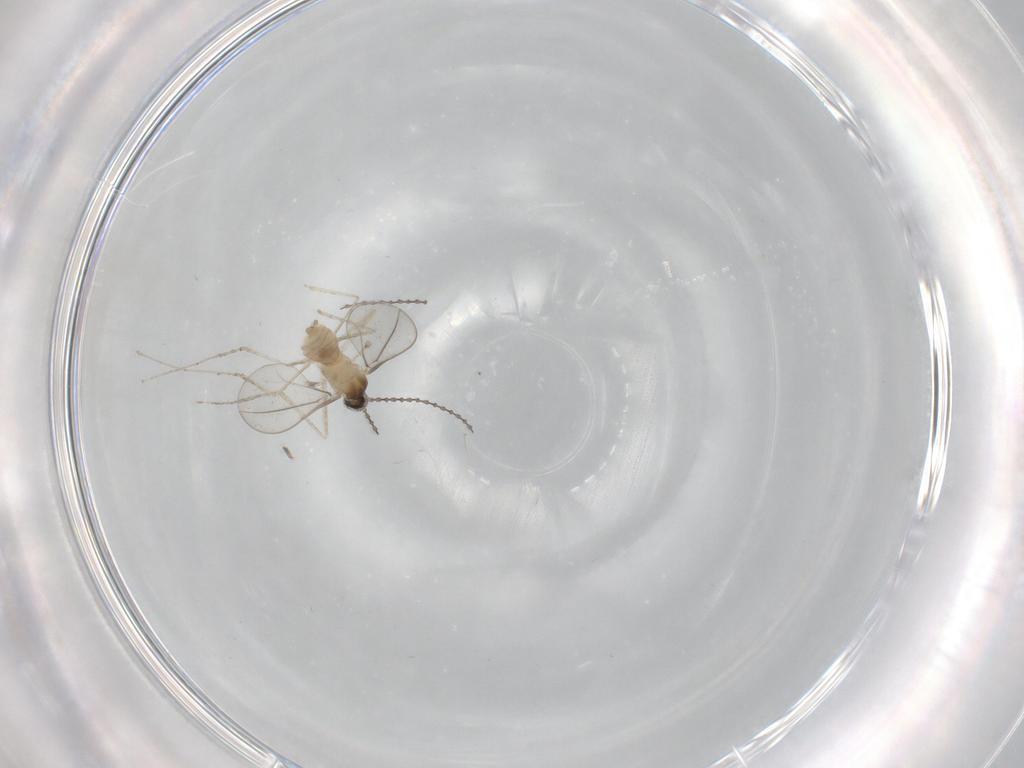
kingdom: Animalia
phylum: Arthropoda
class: Insecta
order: Diptera
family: Cecidomyiidae
